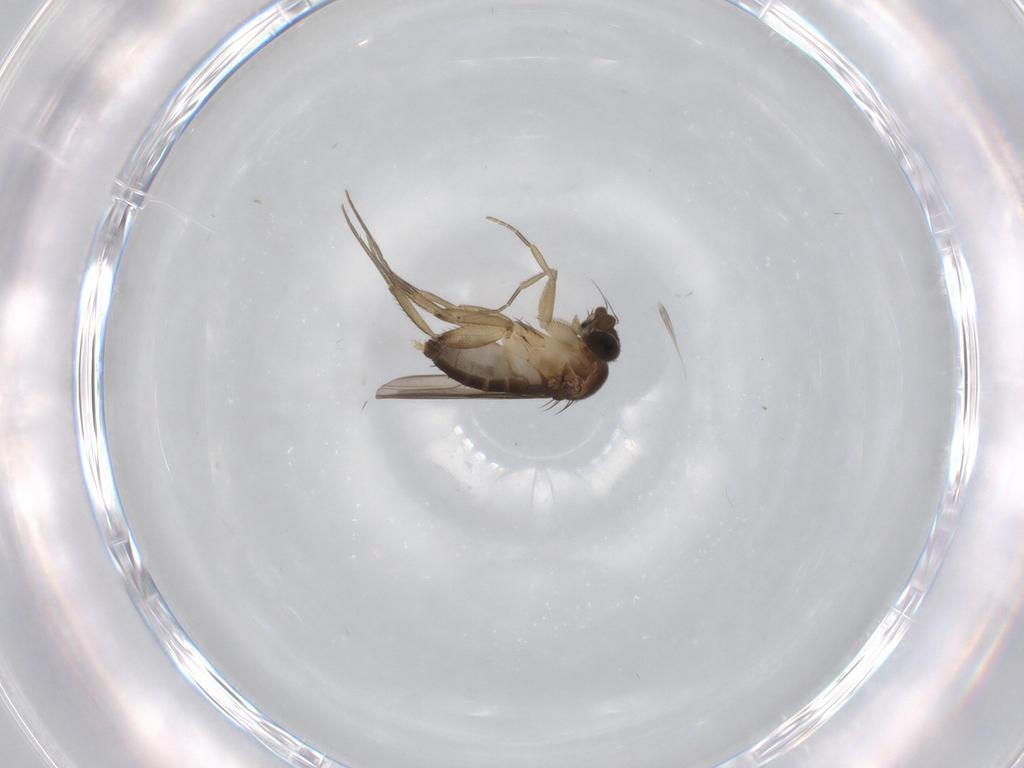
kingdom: Animalia
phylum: Arthropoda
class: Insecta
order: Diptera
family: Phoridae
